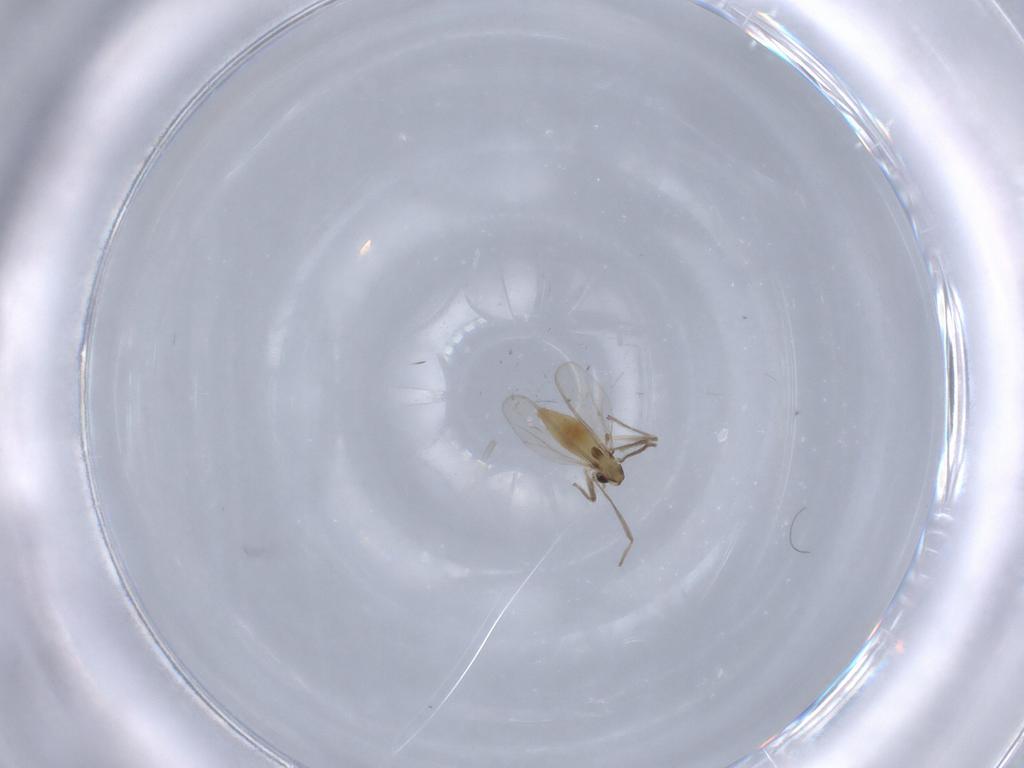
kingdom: Animalia
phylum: Arthropoda
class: Insecta
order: Diptera
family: Chironomidae
